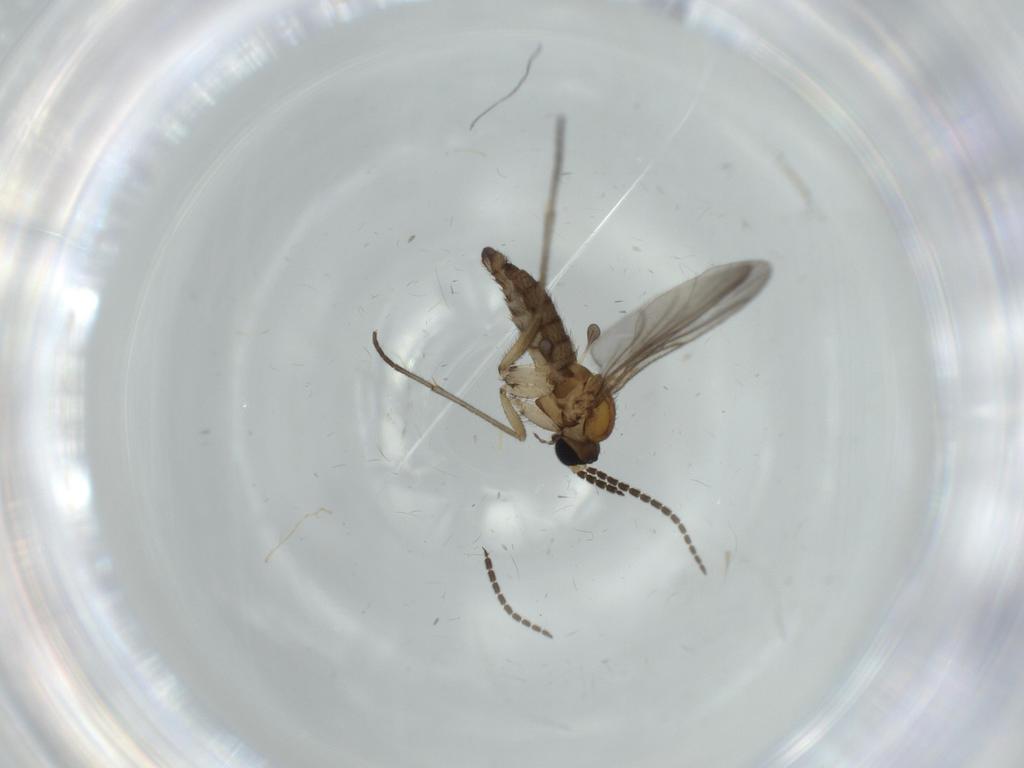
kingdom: Animalia
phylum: Arthropoda
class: Insecta
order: Diptera
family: Sciaridae
